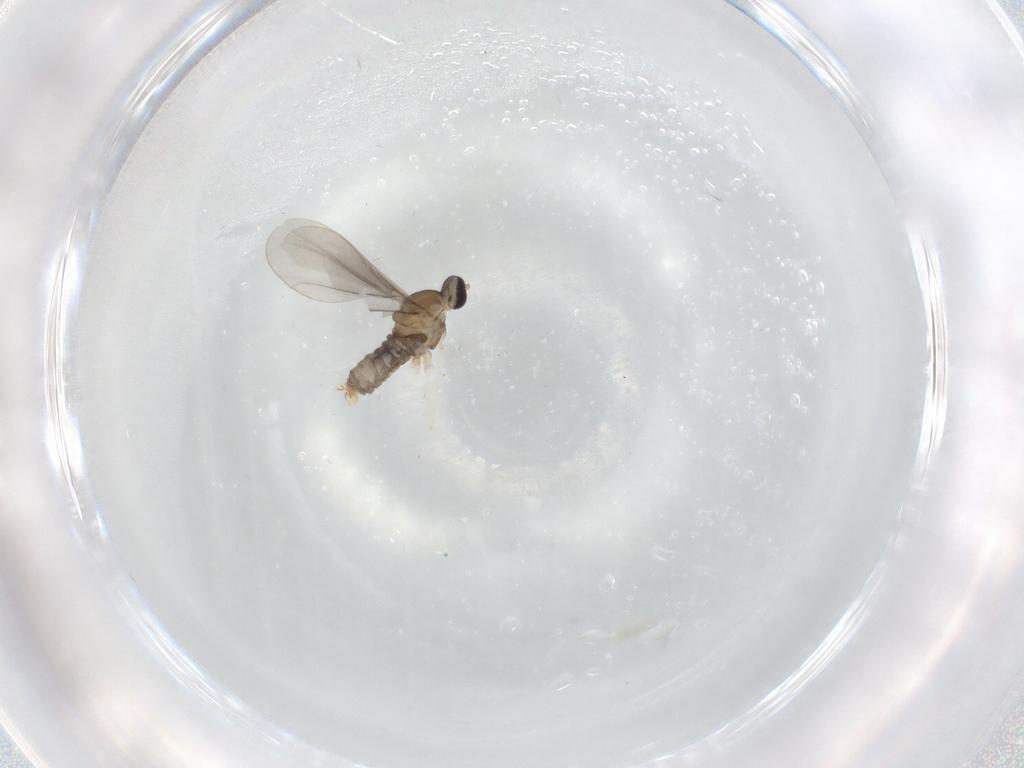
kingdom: Animalia
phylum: Arthropoda
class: Insecta
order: Diptera
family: Cecidomyiidae
